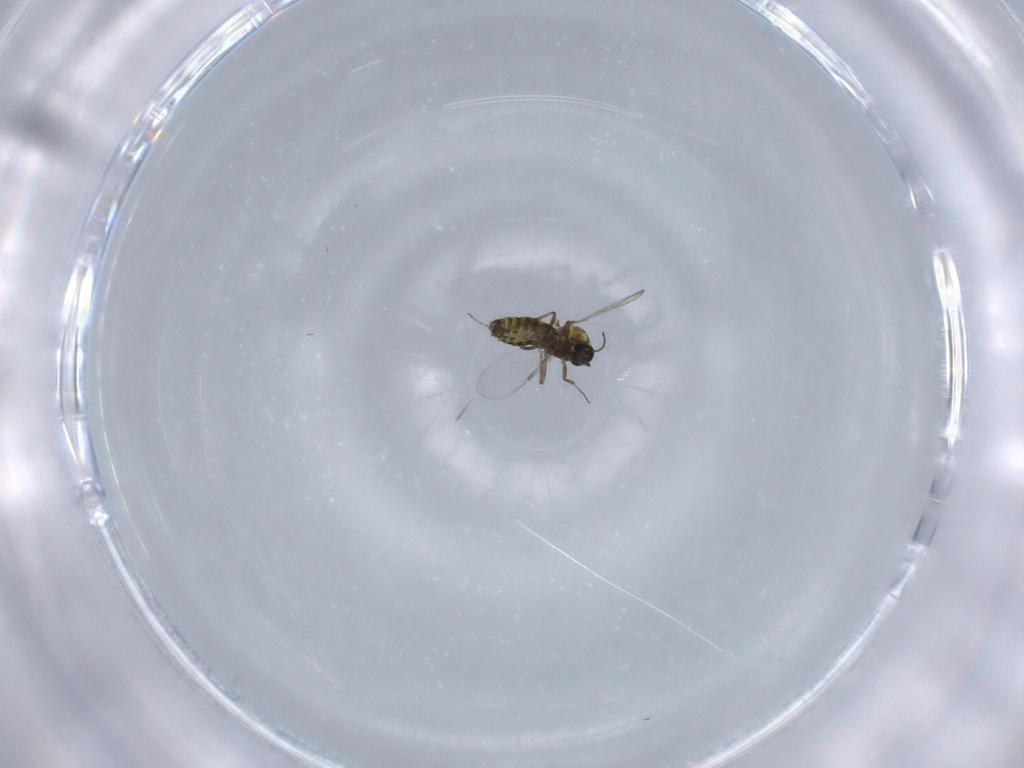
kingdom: Animalia
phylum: Arthropoda
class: Insecta
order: Diptera
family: Ceratopogonidae
